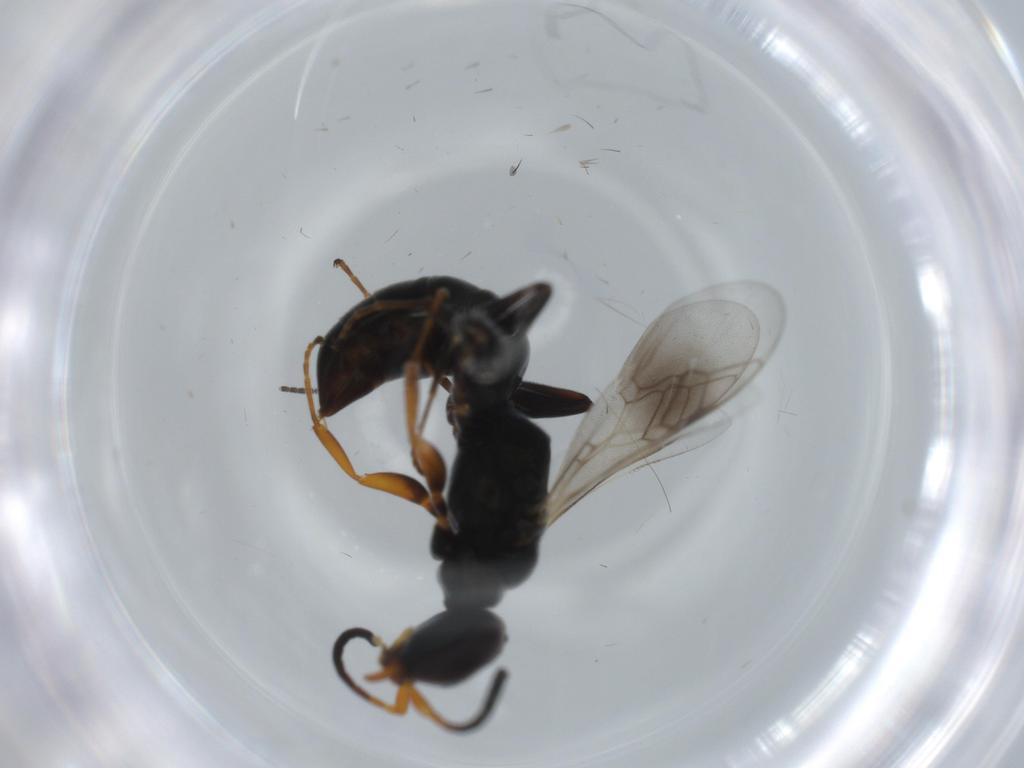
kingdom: Animalia
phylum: Arthropoda
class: Insecta
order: Hymenoptera
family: Crabronidae
